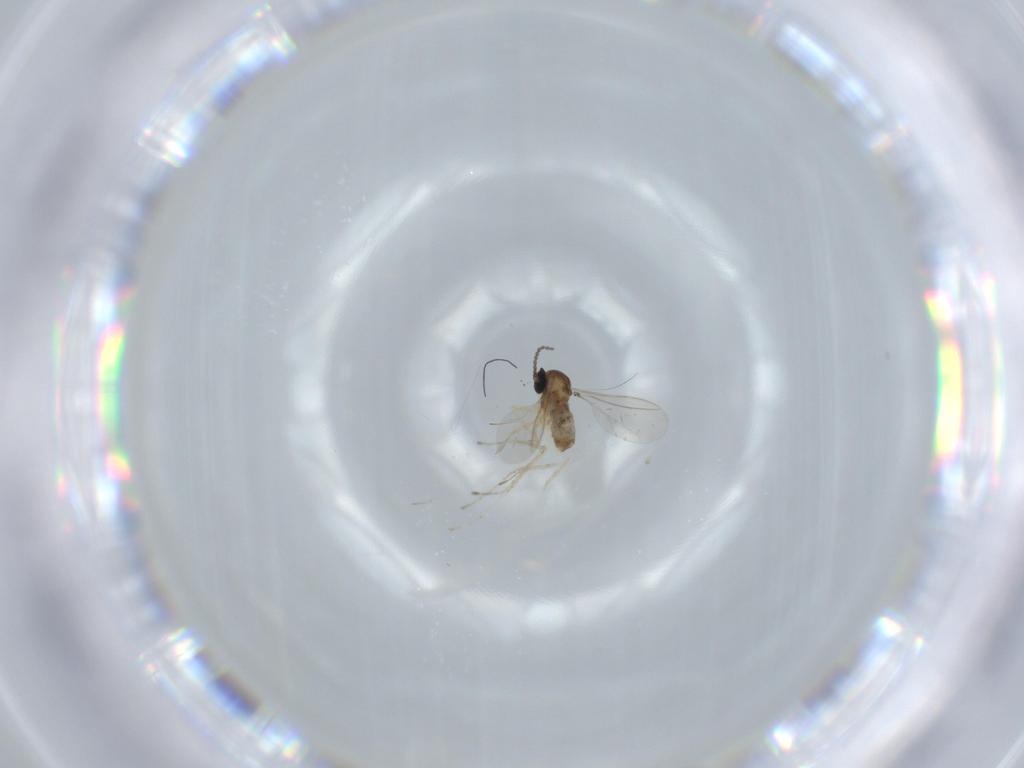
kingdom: Animalia
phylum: Arthropoda
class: Insecta
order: Diptera
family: Cecidomyiidae
